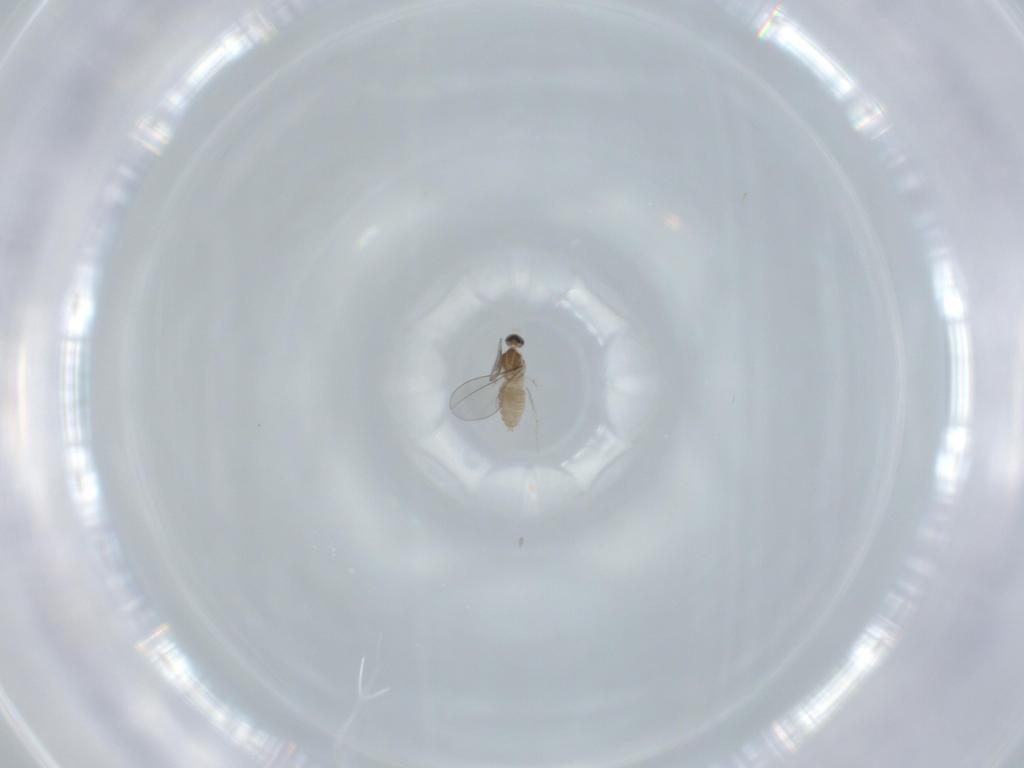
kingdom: Animalia
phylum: Arthropoda
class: Insecta
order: Diptera
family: Cecidomyiidae
